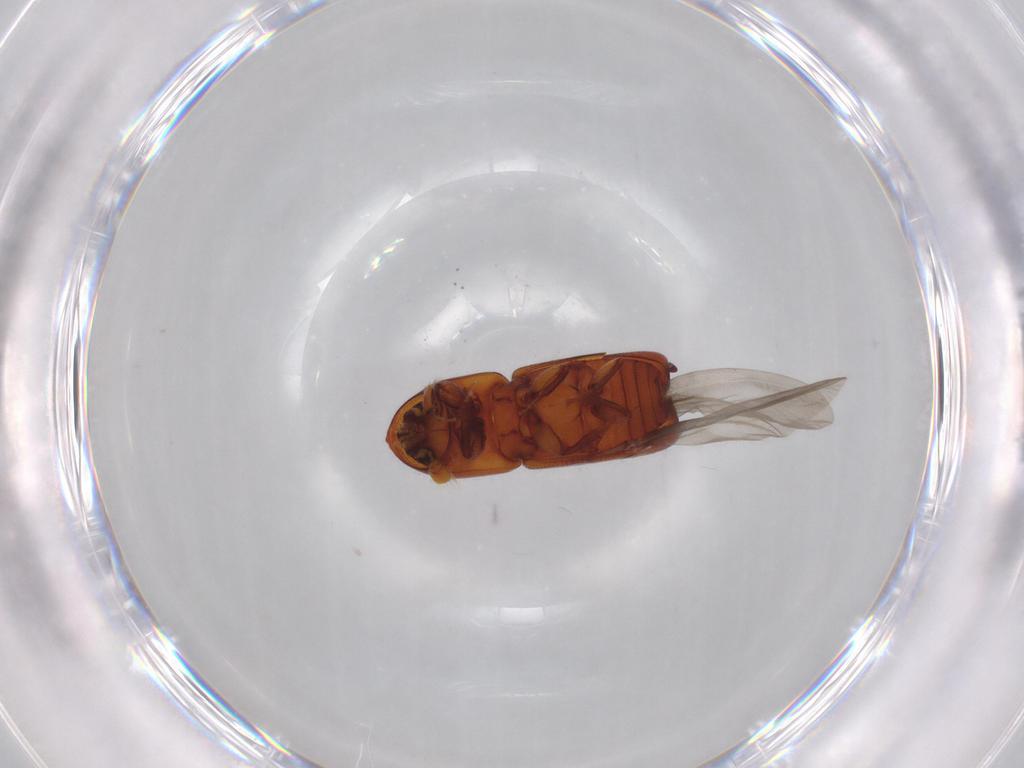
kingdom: Animalia
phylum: Arthropoda
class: Insecta
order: Coleoptera
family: Curculionidae
